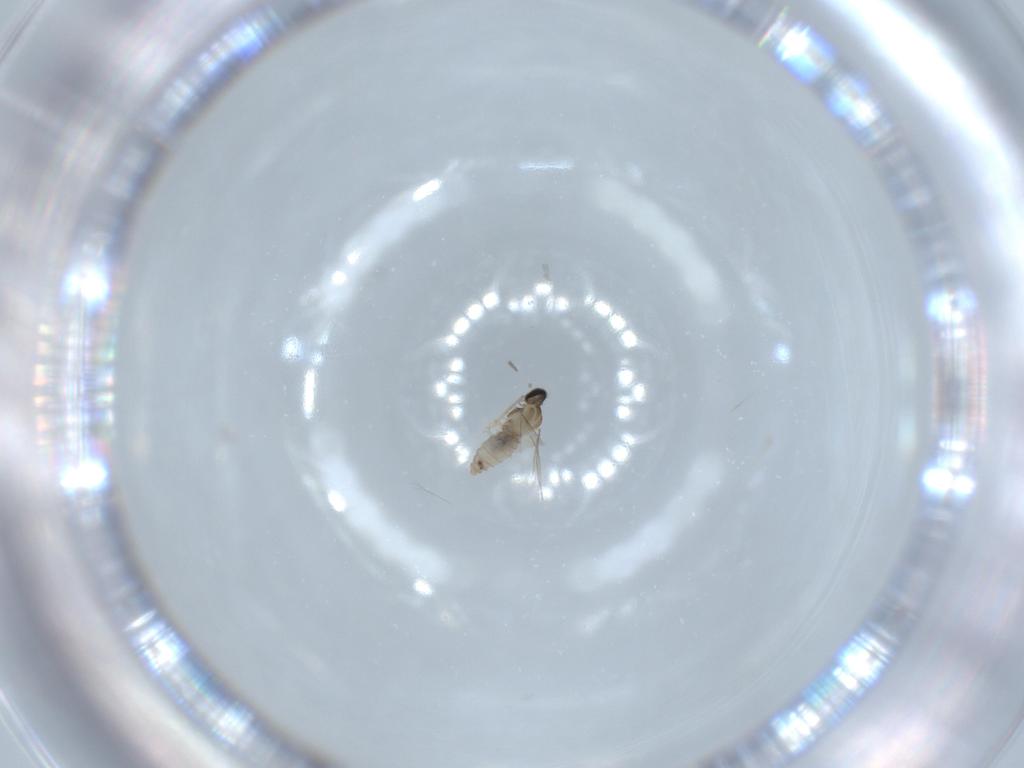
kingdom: Animalia
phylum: Arthropoda
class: Insecta
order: Diptera
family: Cecidomyiidae
